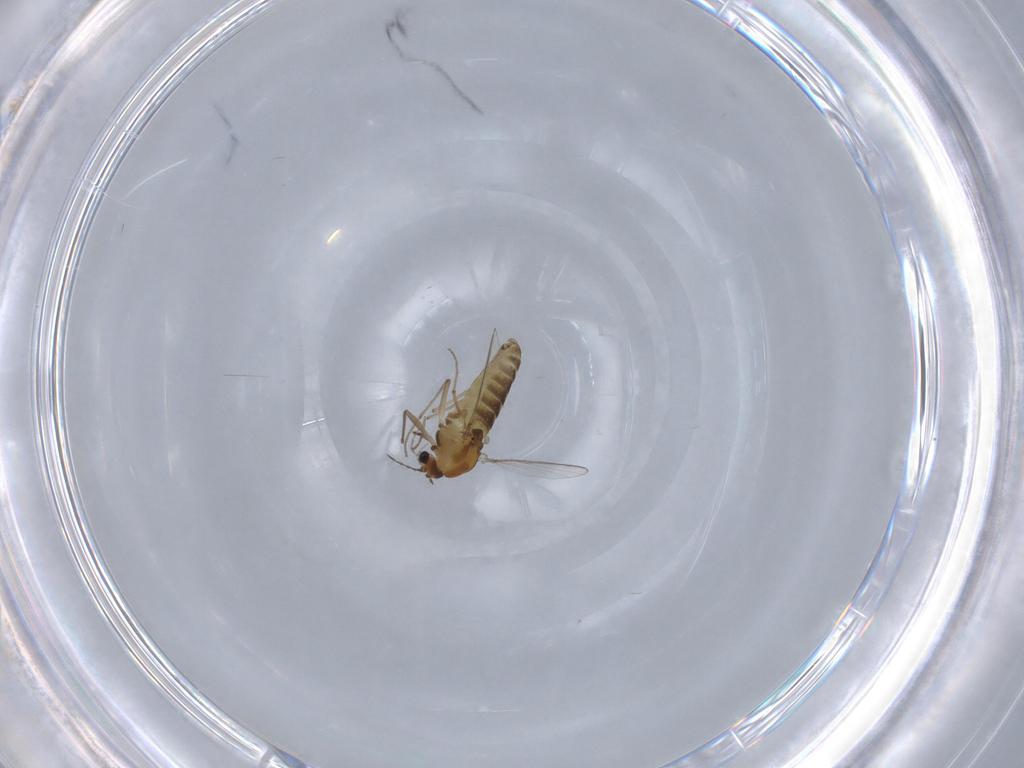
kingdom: Animalia
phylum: Arthropoda
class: Insecta
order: Diptera
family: Chironomidae
